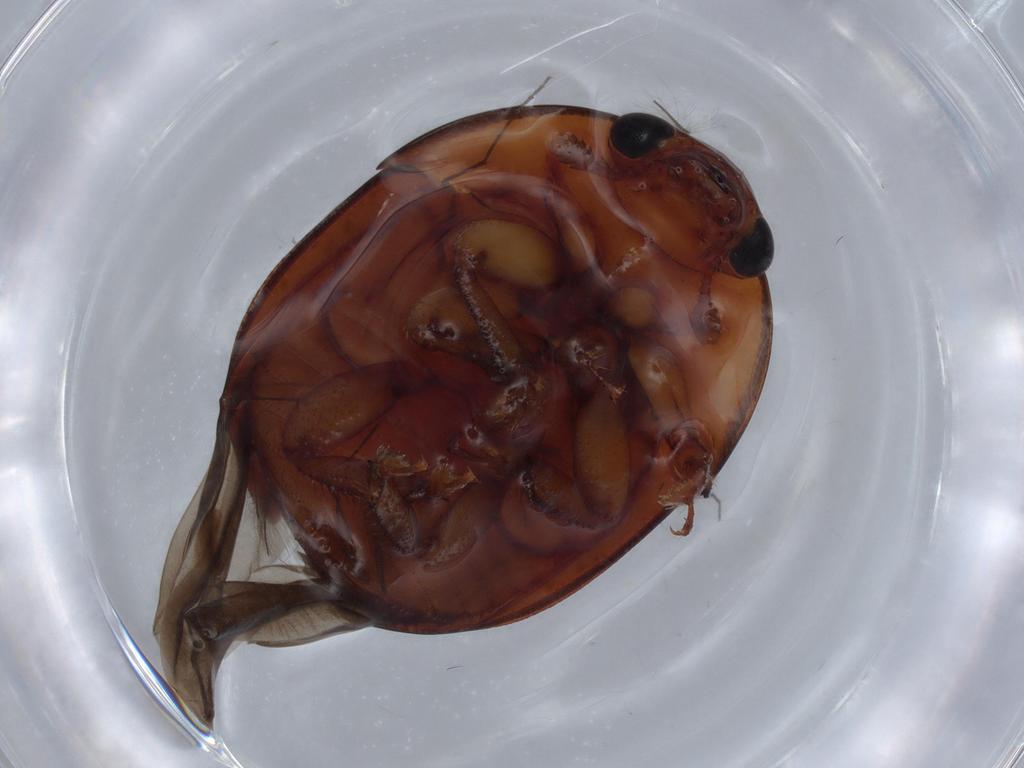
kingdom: Animalia
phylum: Arthropoda
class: Insecta
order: Coleoptera
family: Nitidulidae
